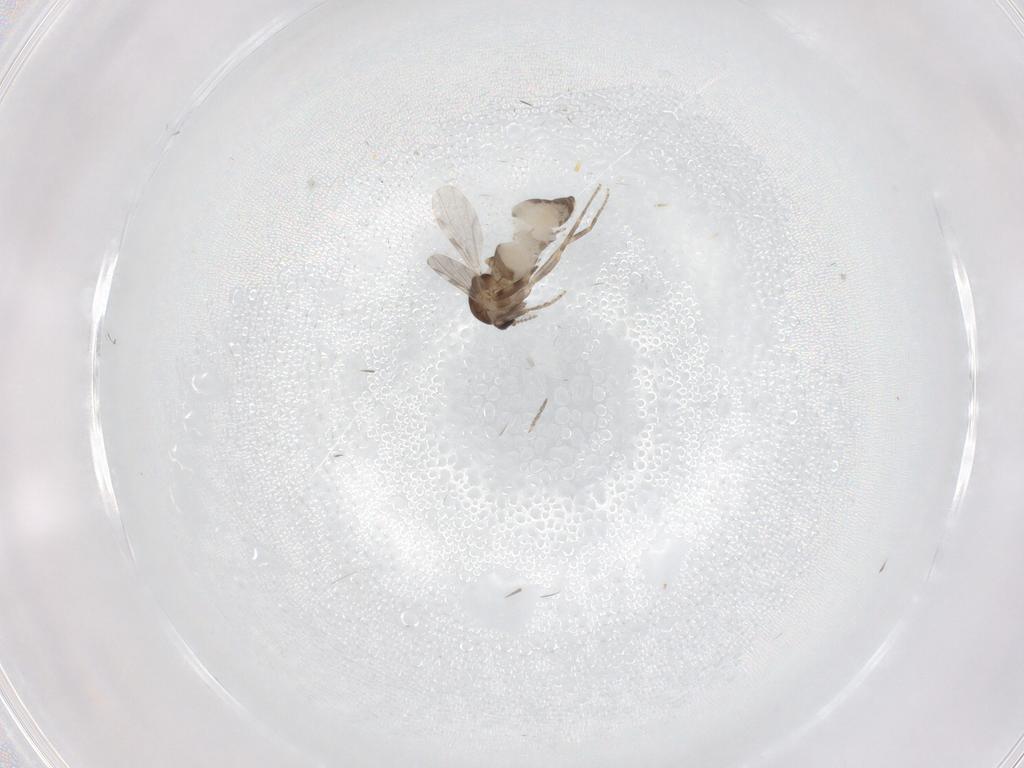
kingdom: Animalia
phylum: Arthropoda
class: Insecta
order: Diptera
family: Ceratopogonidae
